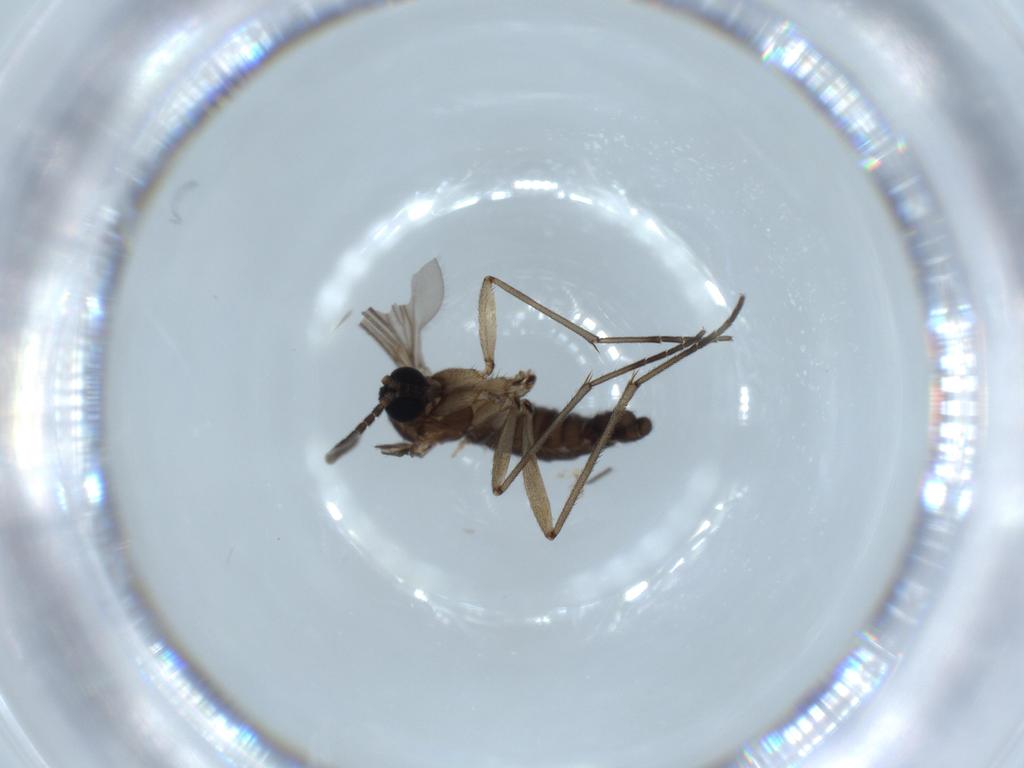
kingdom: Animalia
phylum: Arthropoda
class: Insecta
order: Diptera
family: Sciaridae
